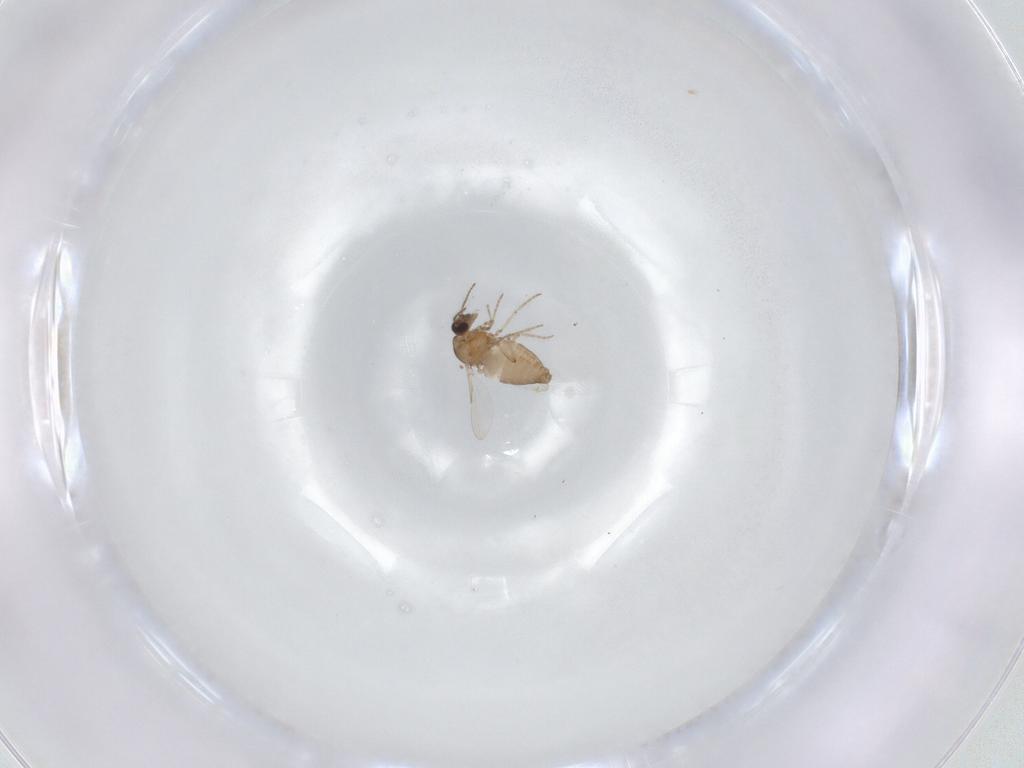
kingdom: Animalia
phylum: Arthropoda
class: Insecta
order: Diptera
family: Ceratopogonidae
